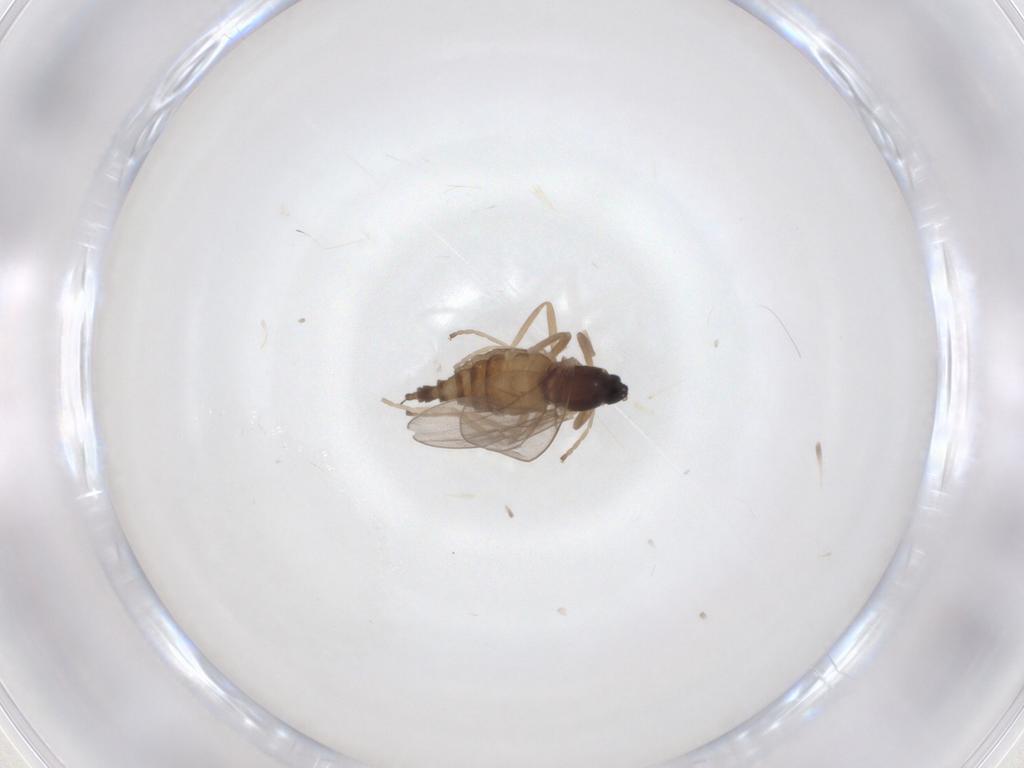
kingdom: Animalia
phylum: Arthropoda
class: Insecta
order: Diptera
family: Cecidomyiidae
